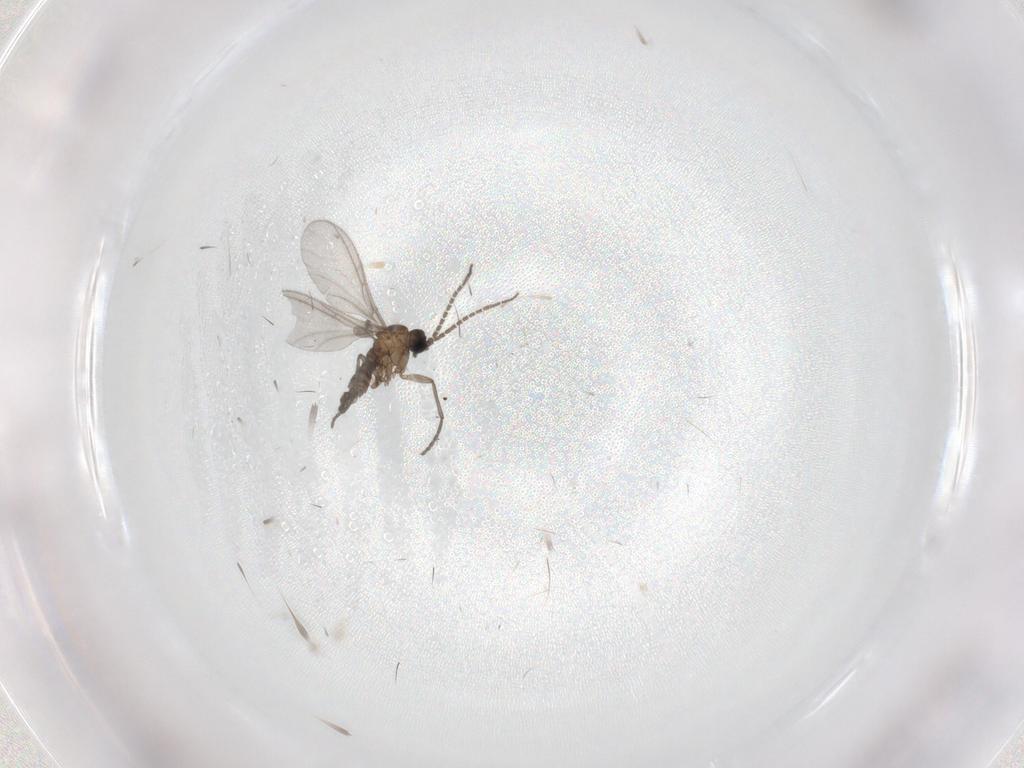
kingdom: Animalia
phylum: Arthropoda
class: Insecta
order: Diptera
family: Sciaridae
